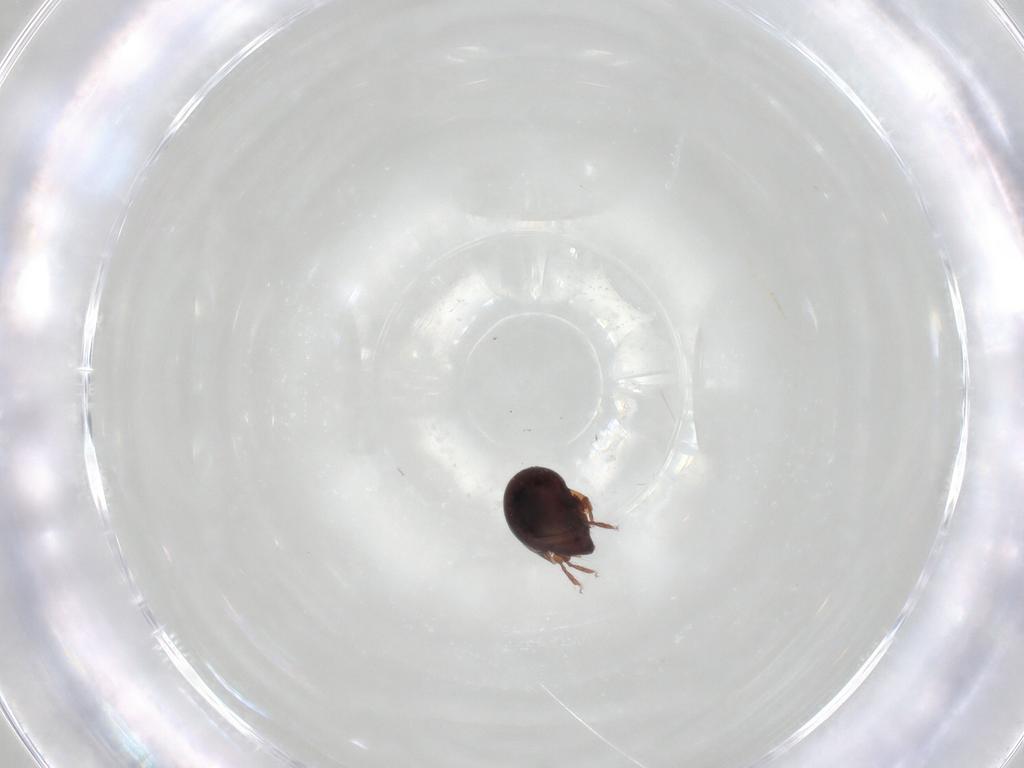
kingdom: Animalia
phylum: Arthropoda
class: Arachnida
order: Sarcoptiformes
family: Humerobatidae
